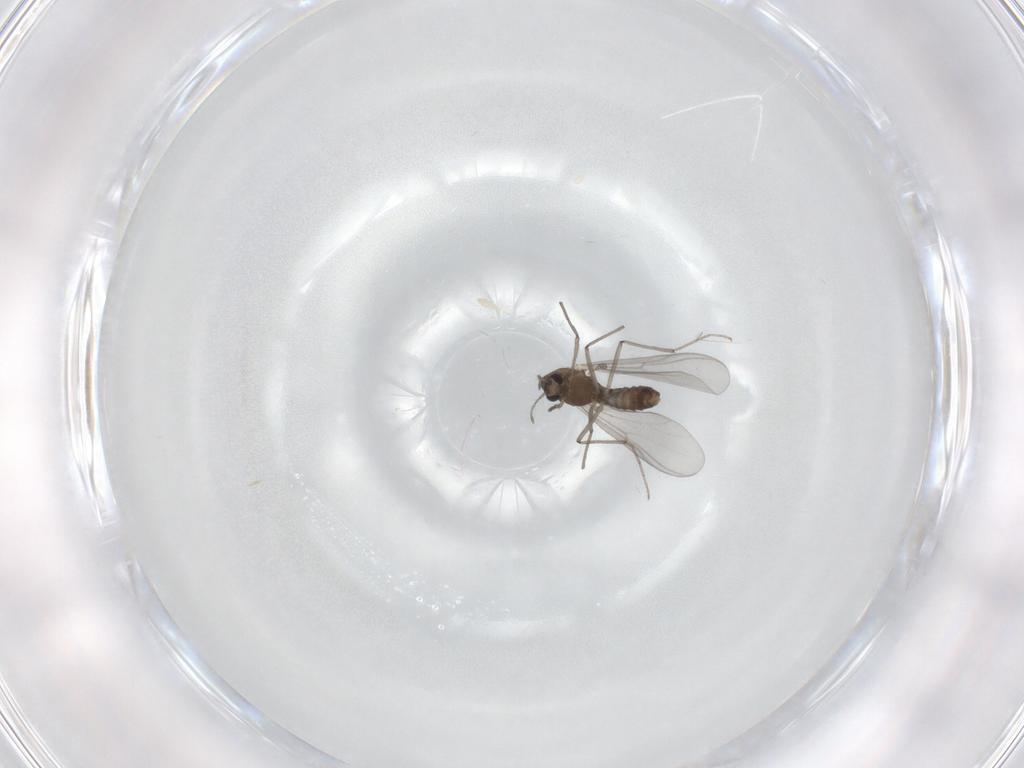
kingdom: Animalia
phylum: Arthropoda
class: Insecta
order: Diptera
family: Chironomidae
